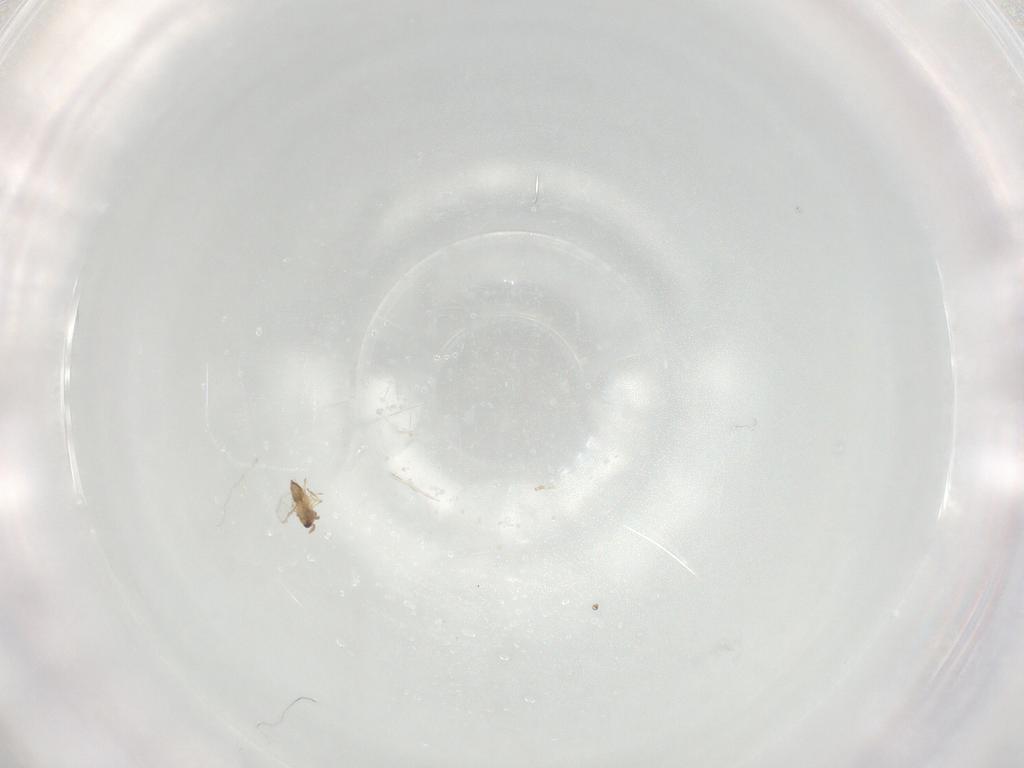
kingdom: Animalia
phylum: Arthropoda
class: Insecta
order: Hymenoptera
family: Trichogrammatidae
